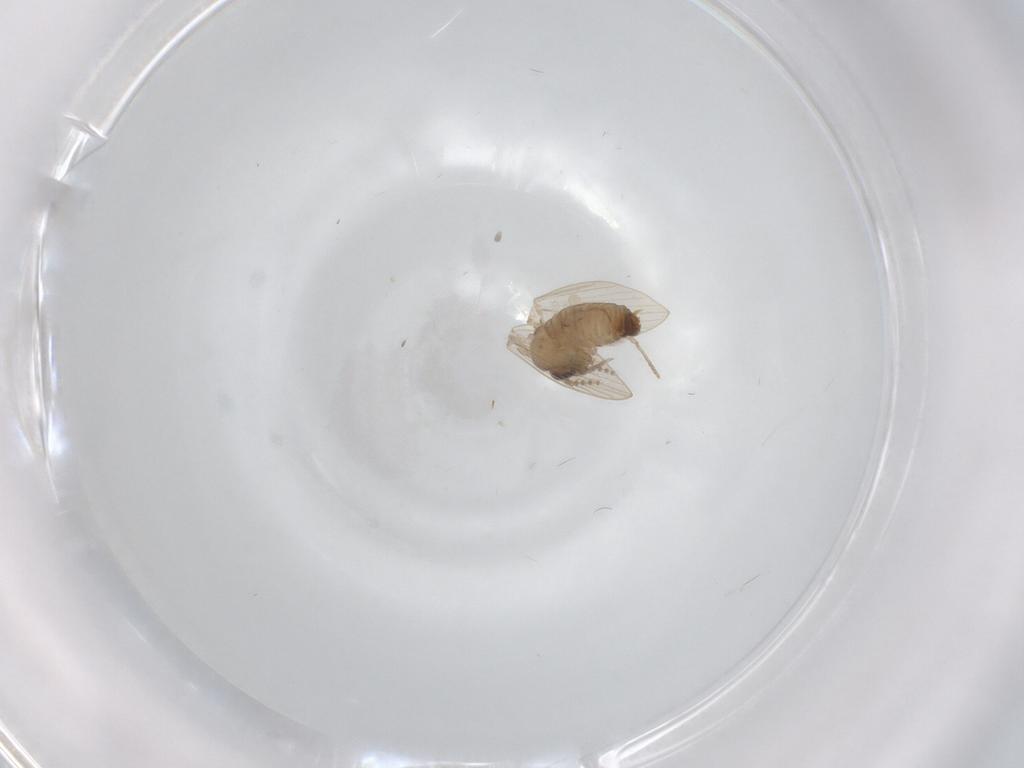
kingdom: Animalia
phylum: Arthropoda
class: Insecta
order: Diptera
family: Psychodidae
